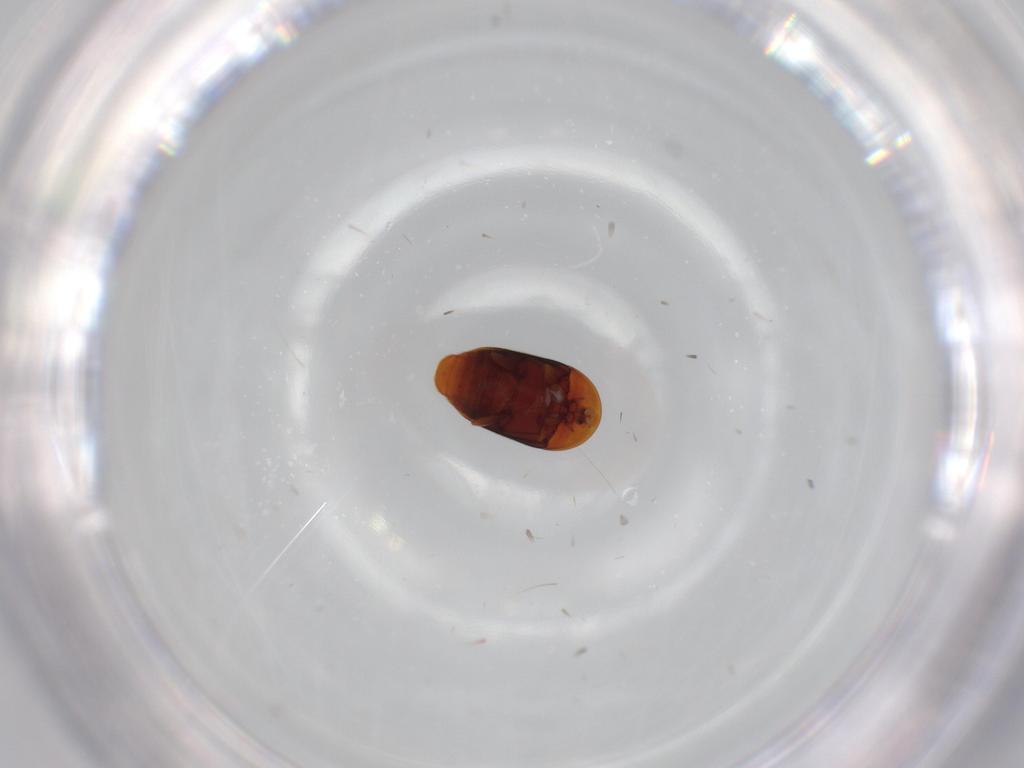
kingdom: Animalia
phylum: Arthropoda
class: Insecta
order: Coleoptera
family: Corylophidae
